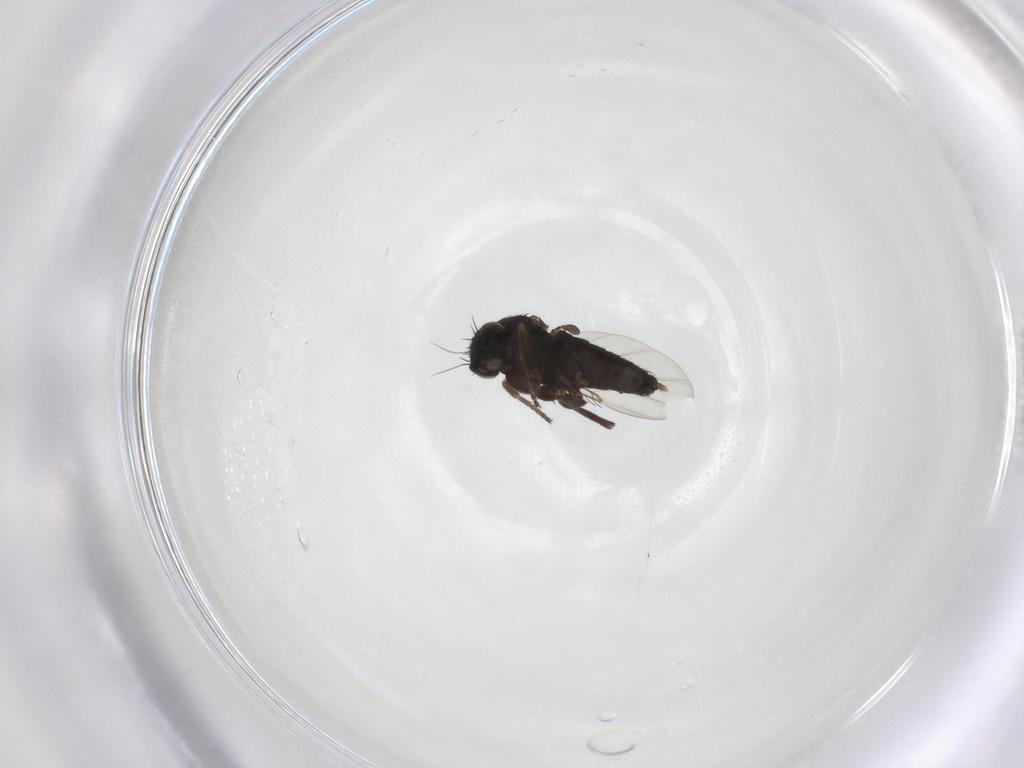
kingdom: Animalia
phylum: Arthropoda
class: Insecta
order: Diptera
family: Phoridae
